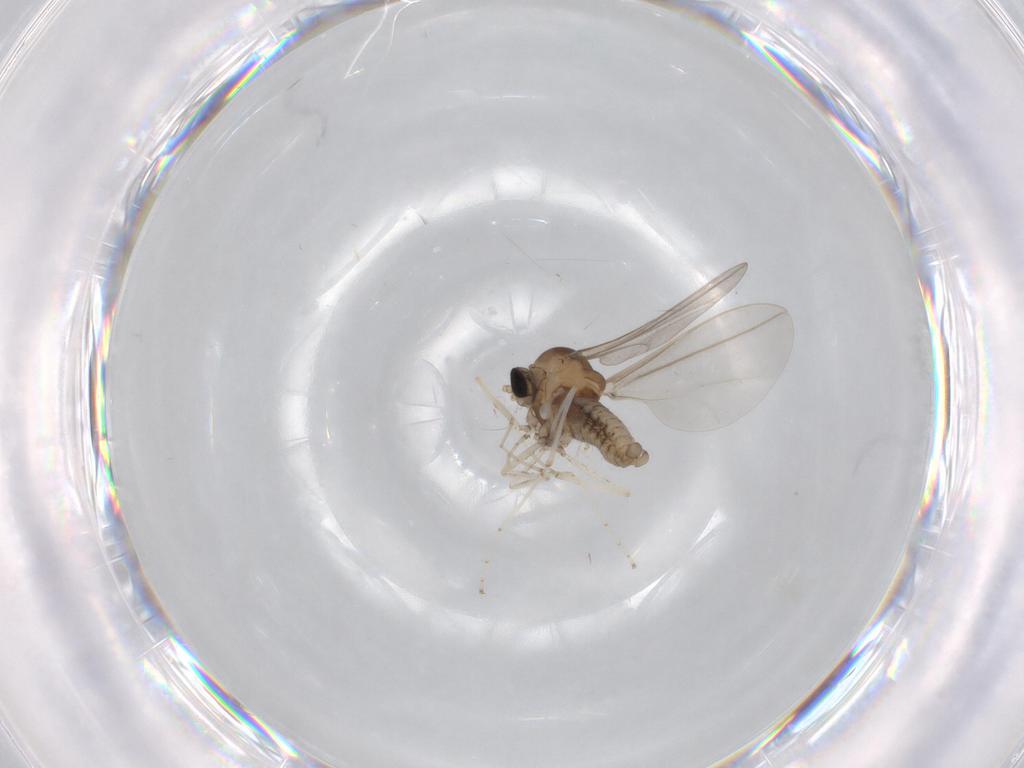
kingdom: Animalia
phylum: Arthropoda
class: Insecta
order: Diptera
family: Cecidomyiidae
